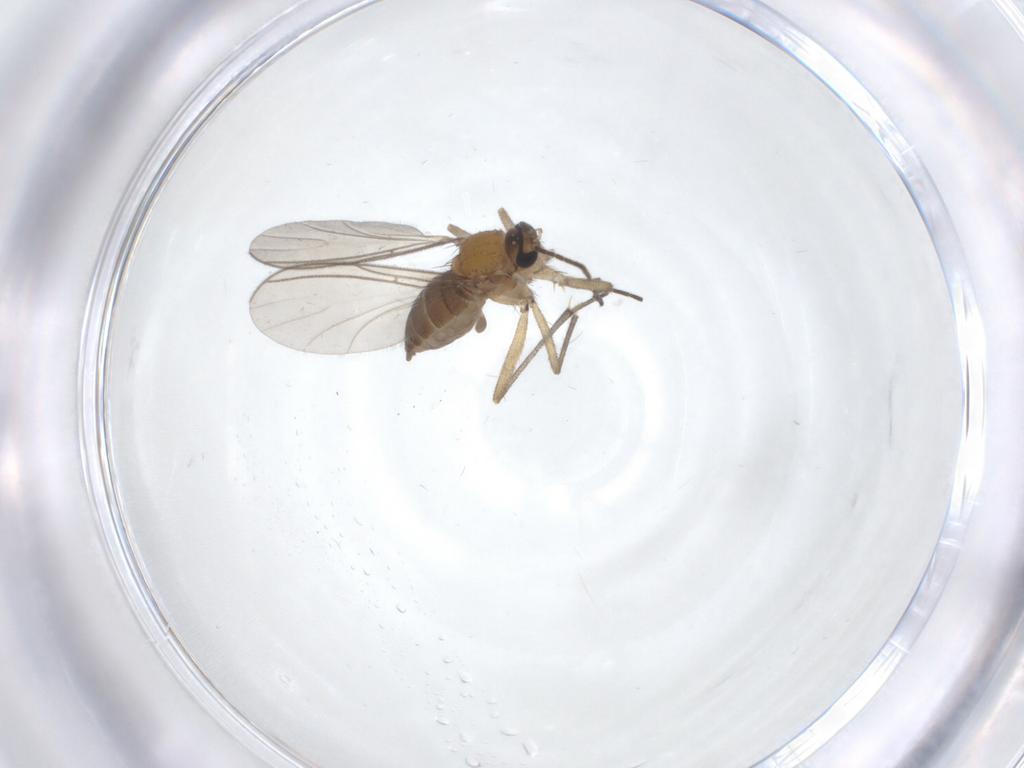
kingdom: Animalia
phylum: Arthropoda
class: Insecta
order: Diptera
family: Sciaridae
